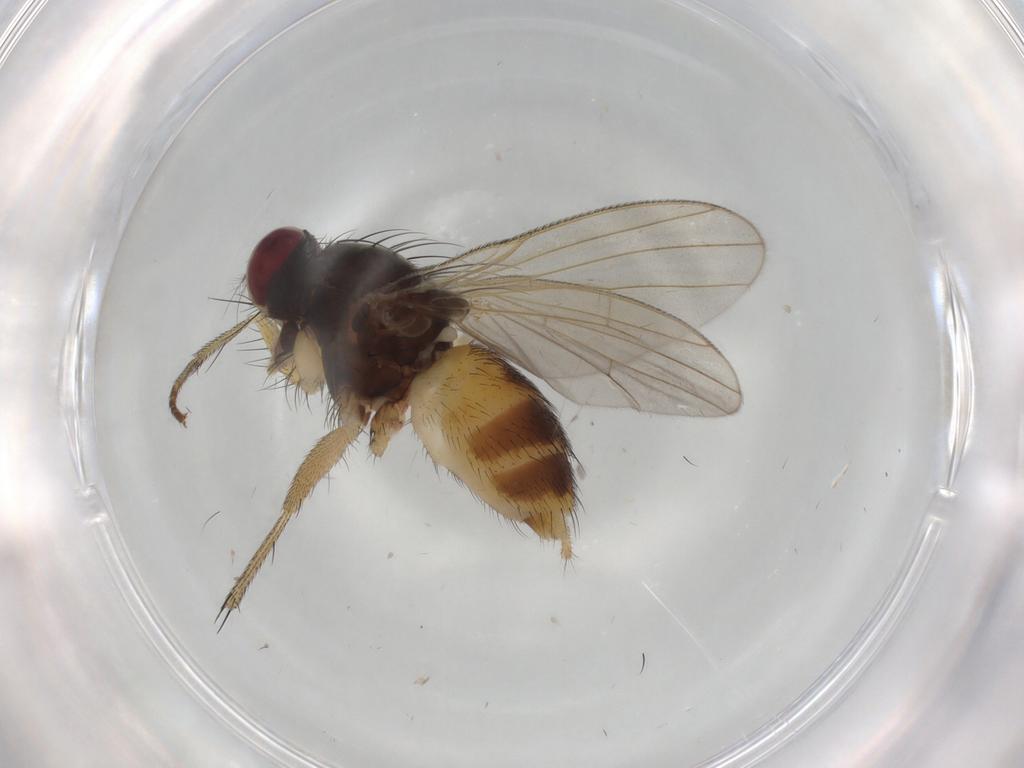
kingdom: Animalia
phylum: Arthropoda
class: Insecta
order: Diptera
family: Psychodidae
